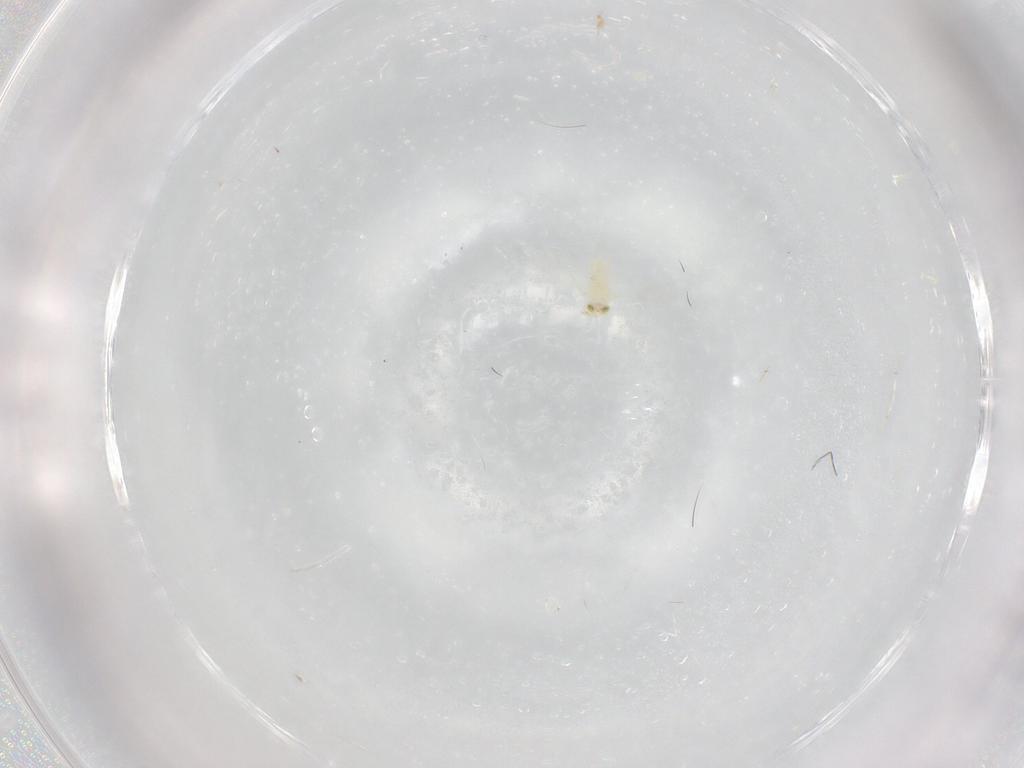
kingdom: Animalia
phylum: Arthropoda
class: Insecta
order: Hymenoptera
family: Aphelinidae
